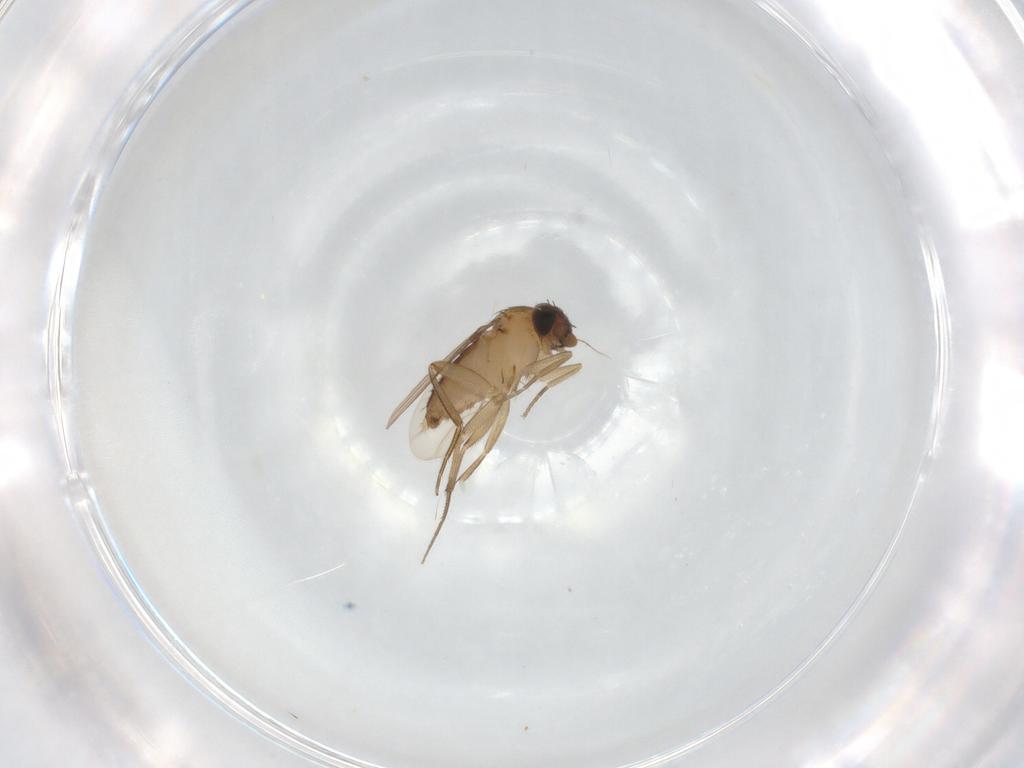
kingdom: Animalia
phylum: Arthropoda
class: Insecta
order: Diptera
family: Phoridae
